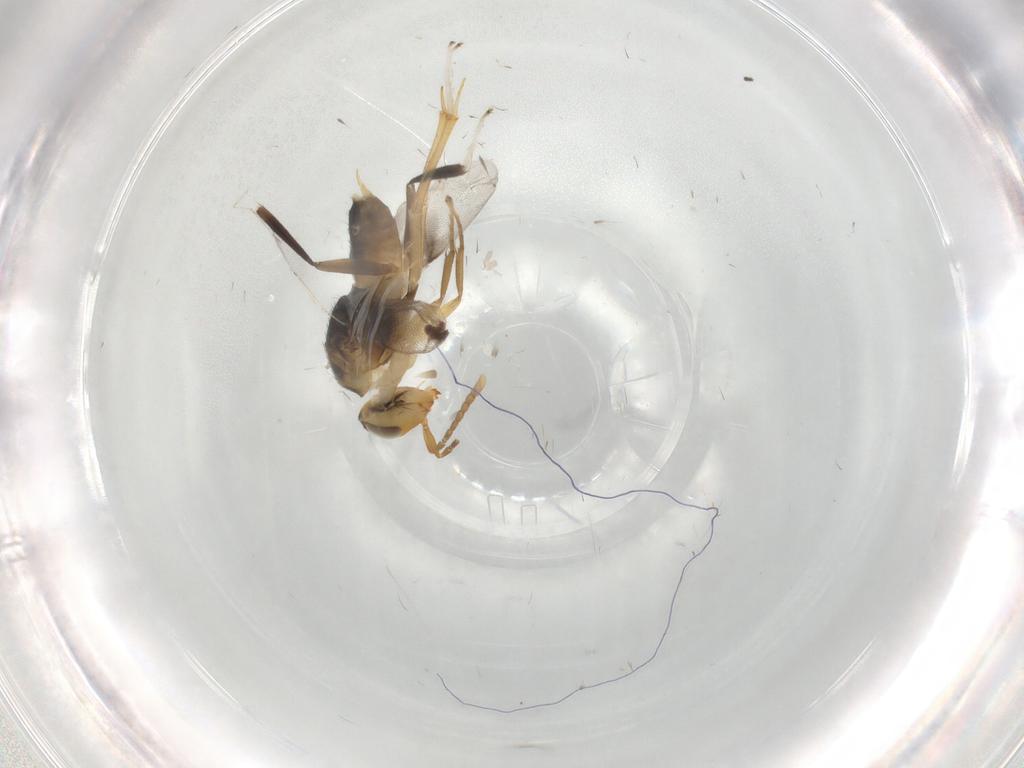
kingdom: Animalia
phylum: Arthropoda
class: Insecta
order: Hymenoptera
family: Encyrtidae
